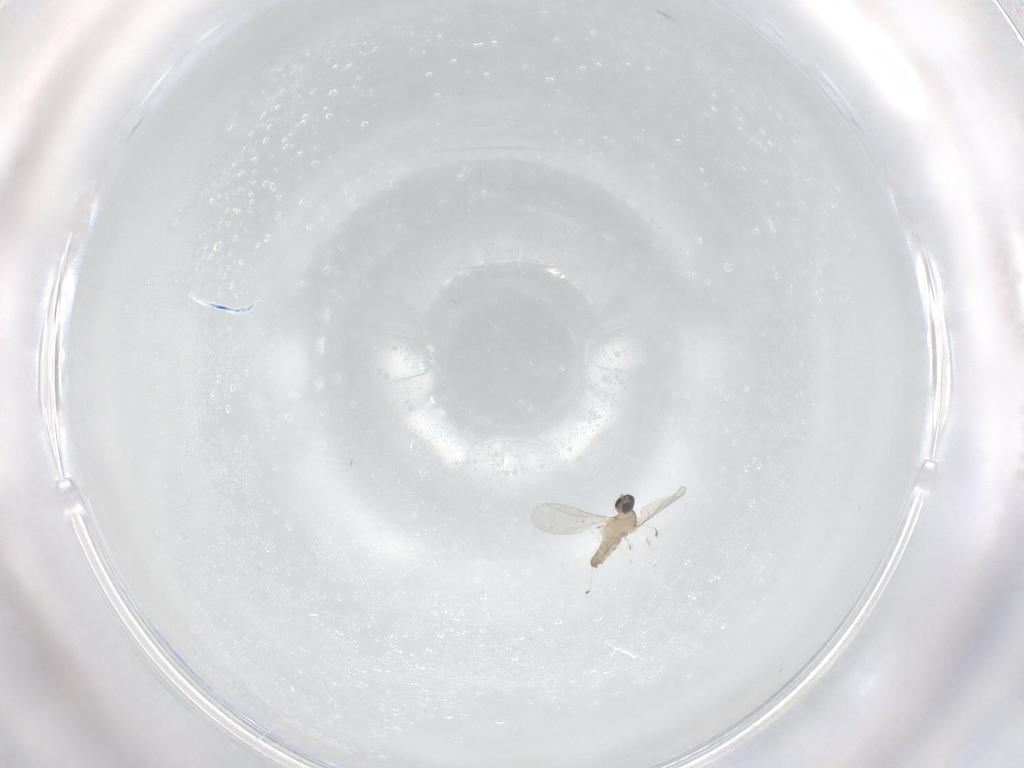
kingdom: Animalia
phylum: Arthropoda
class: Insecta
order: Diptera
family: Cecidomyiidae
